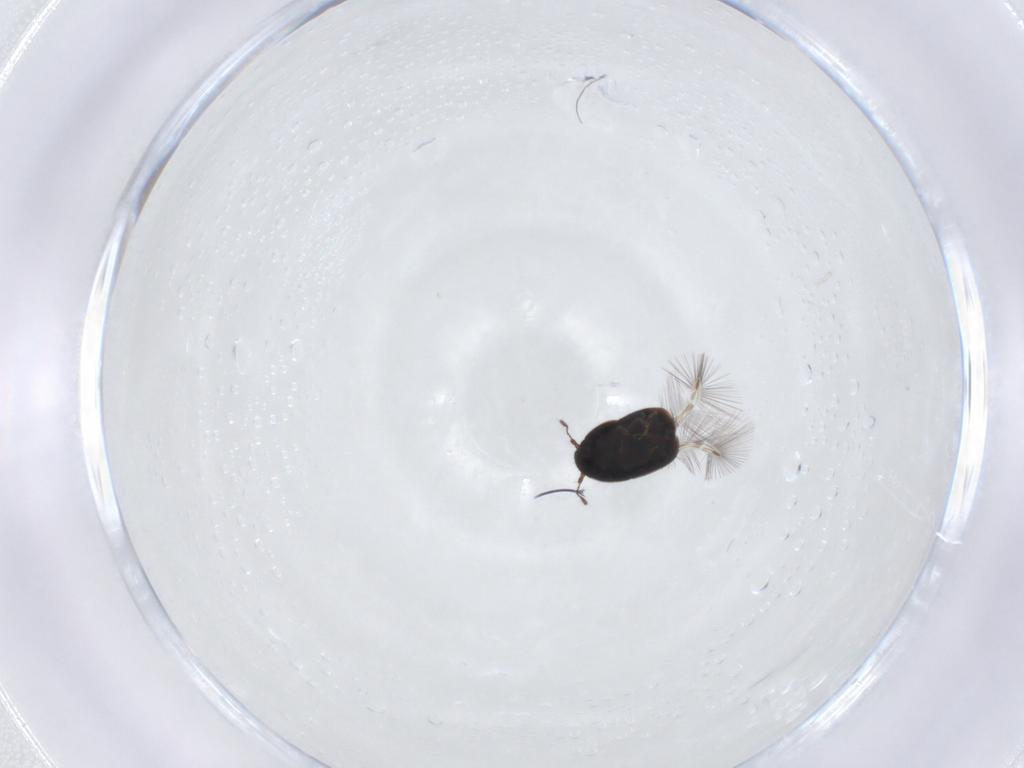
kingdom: Animalia
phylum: Arthropoda
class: Insecta
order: Coleoptera
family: Ptiliidae
